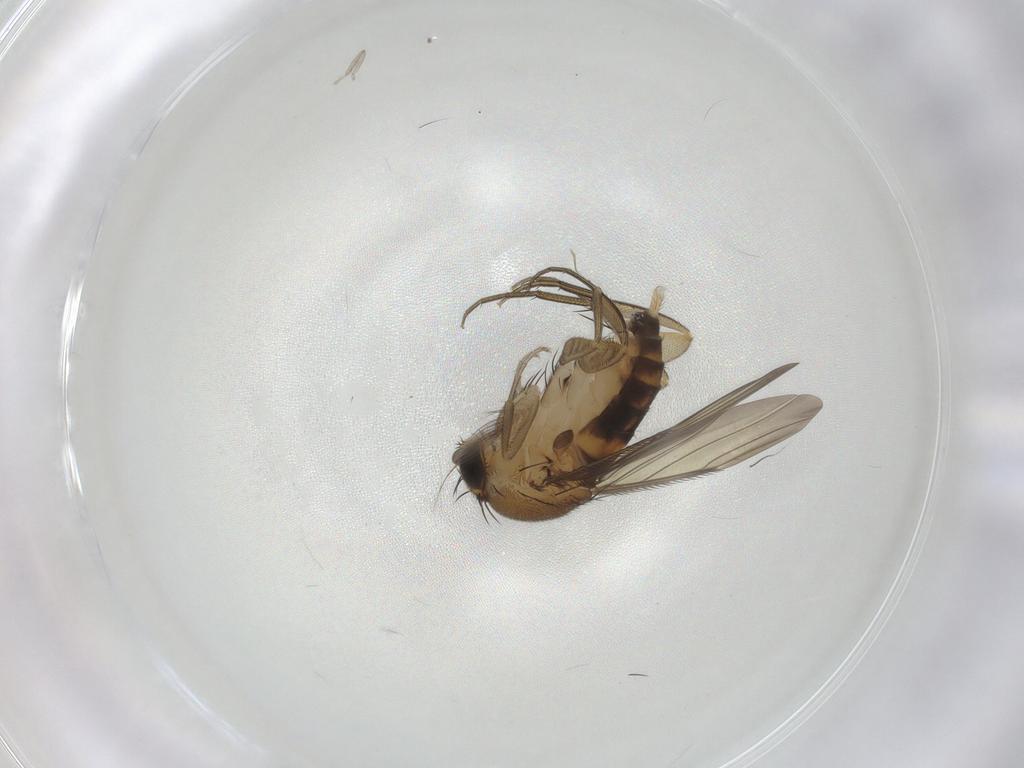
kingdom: Animalia
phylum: Arthropoda
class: Insecta
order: Diptera
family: Phoridae
